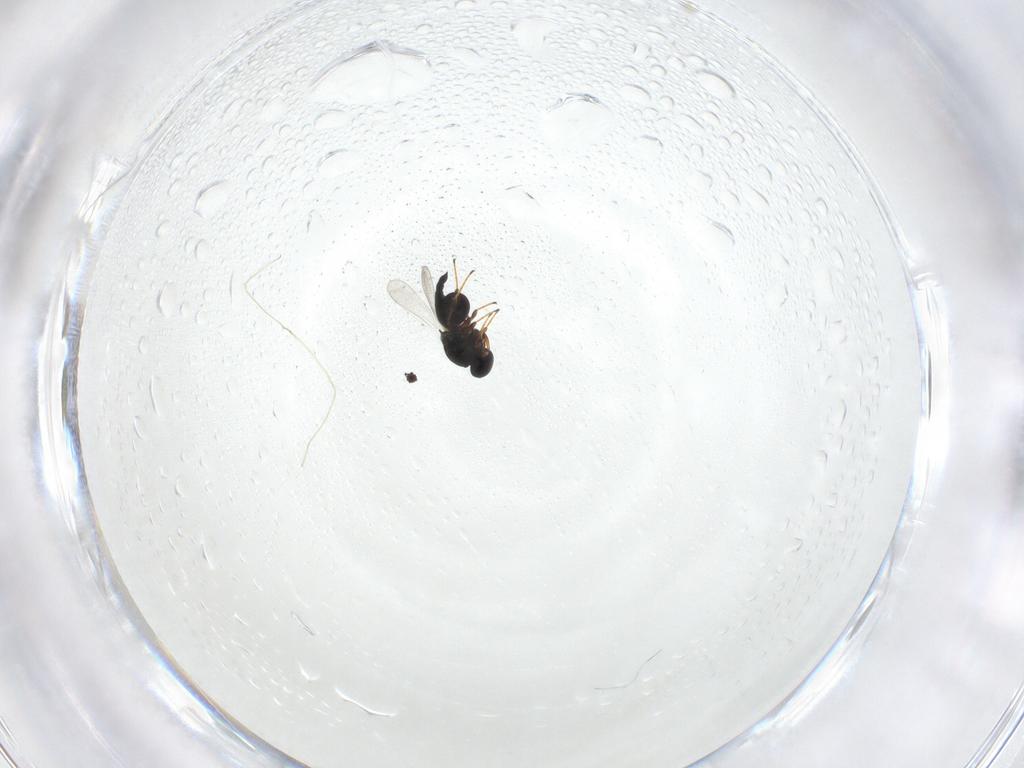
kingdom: Animalia
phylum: Arthropoda
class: Insecta
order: Hymenoptera
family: Platygastridae
